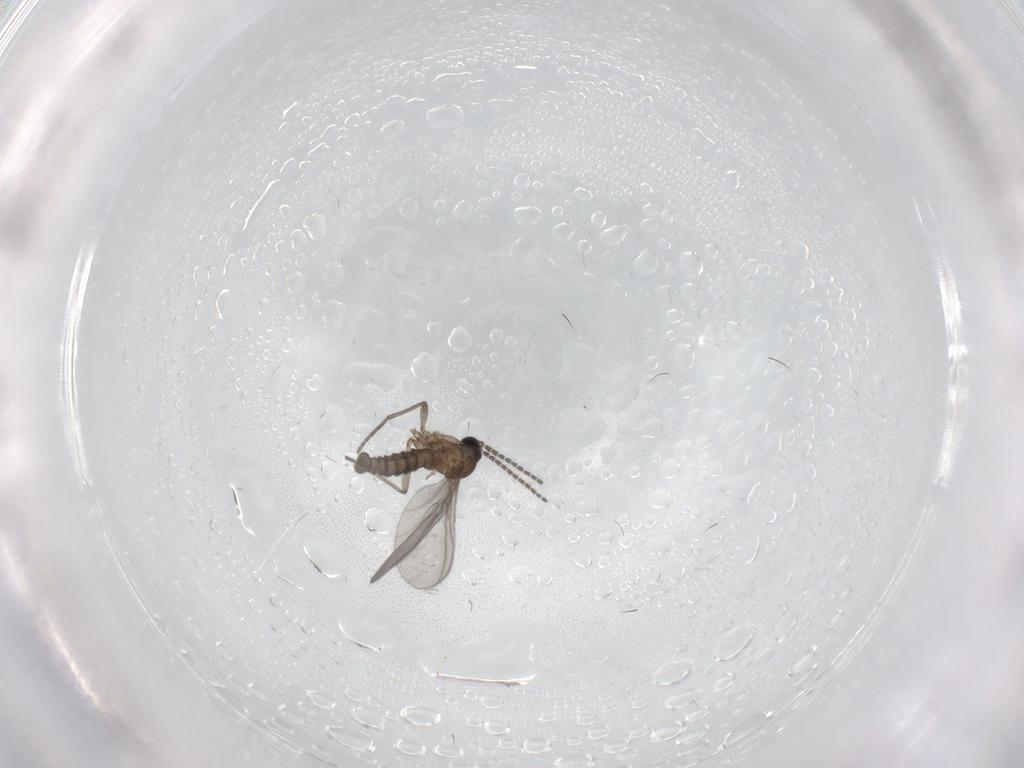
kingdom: Animalia
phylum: Arthropoda
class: Insecta
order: Diptera
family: Sciaridae
